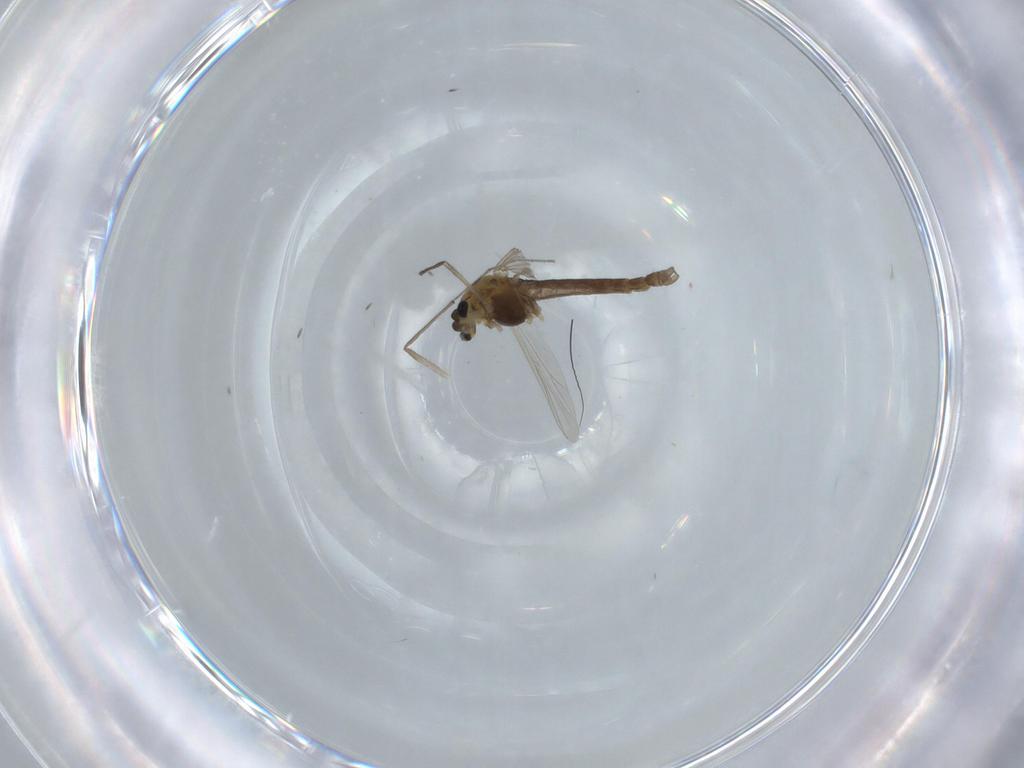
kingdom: Animalia
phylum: Arthropoda
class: Insecta
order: Diptera
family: Chironomidae
